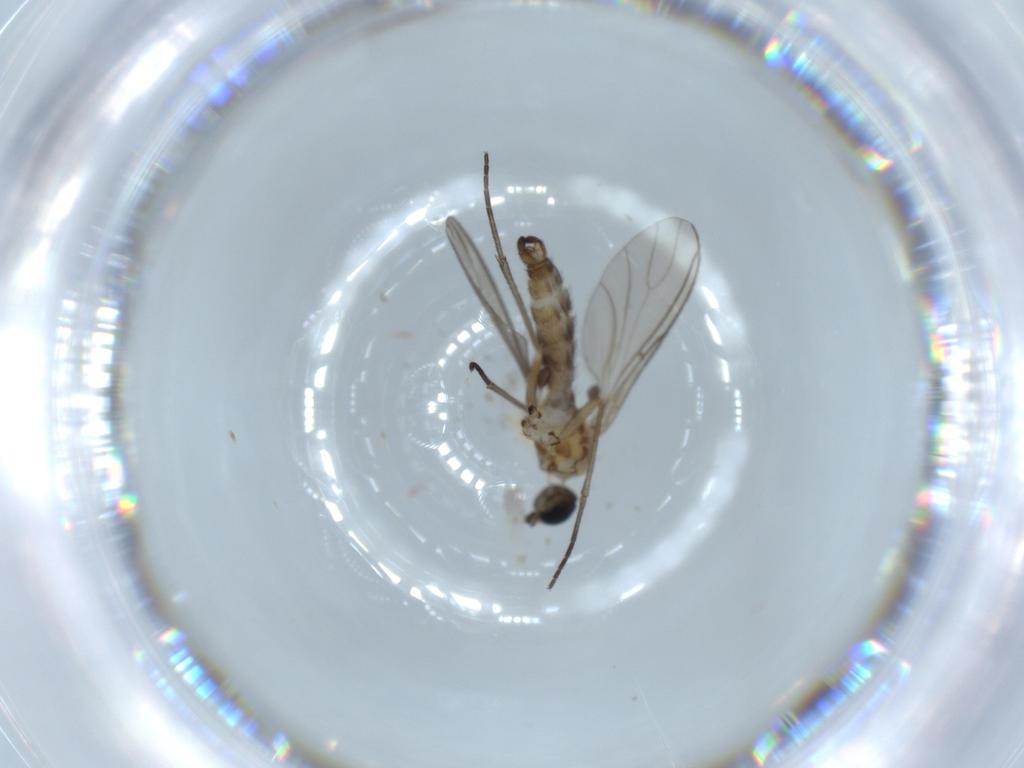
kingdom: Animalia
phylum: Arthropoda
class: Insecta
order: Diptera
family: Sciaridae
